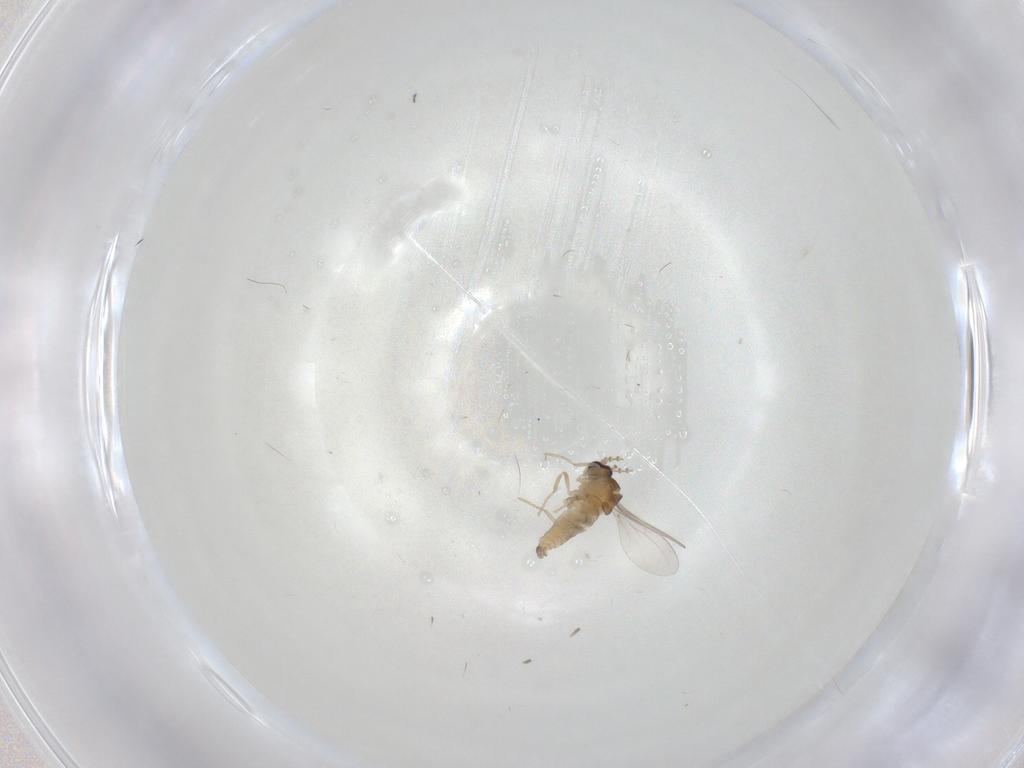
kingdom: Animalia
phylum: Arthropoda
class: Insecta
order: Diptera
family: Cecidomyiidae
